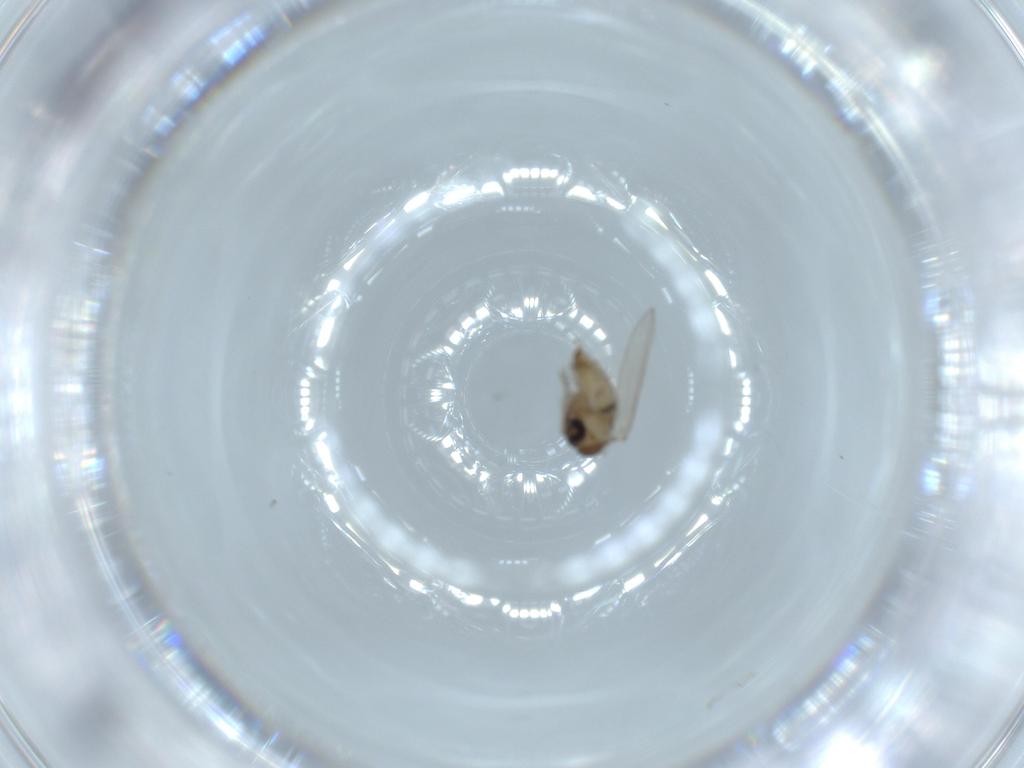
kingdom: Animalia
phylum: Arthropoda
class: Insecta
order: Diptera
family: Psychodidae
